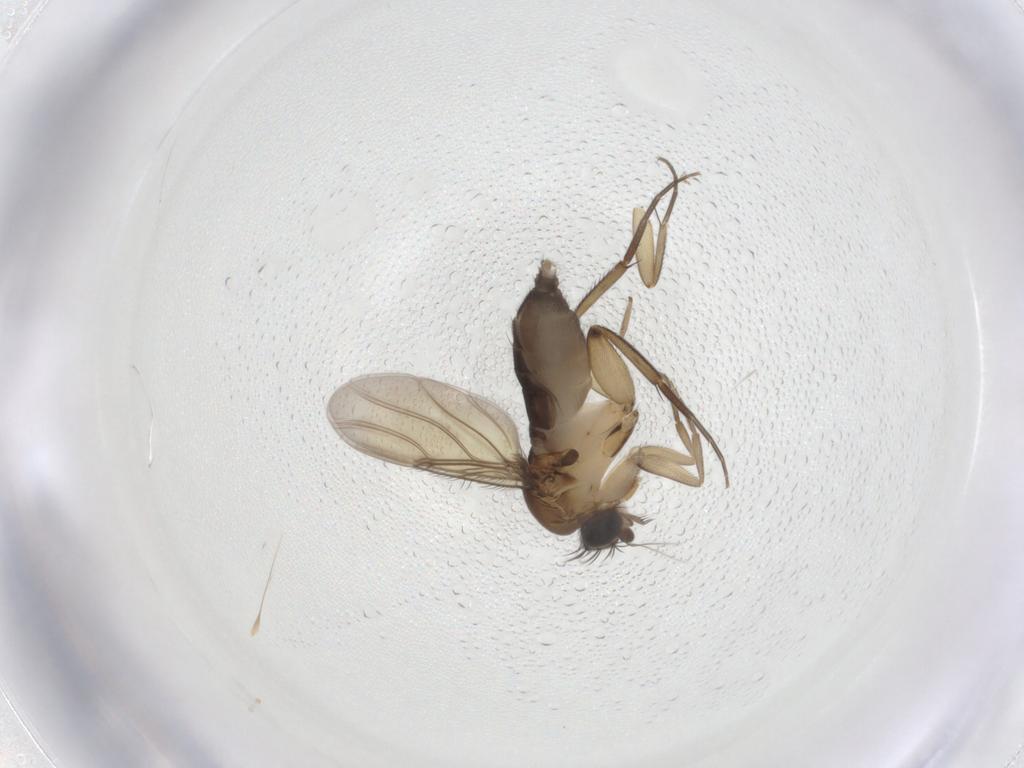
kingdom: Animalia
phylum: Arthropoda
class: Insecta
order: Diptera
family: Phoridae
